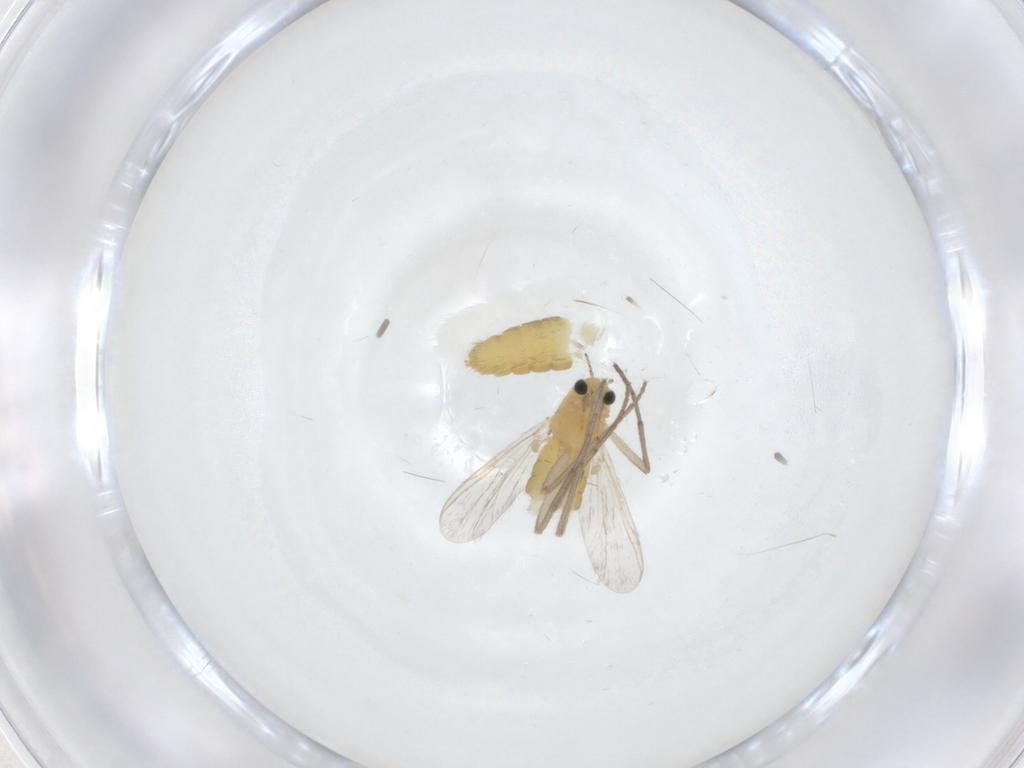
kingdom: Animalia
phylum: Arthropoda
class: Insecta
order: Diptera
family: Chironomidae
